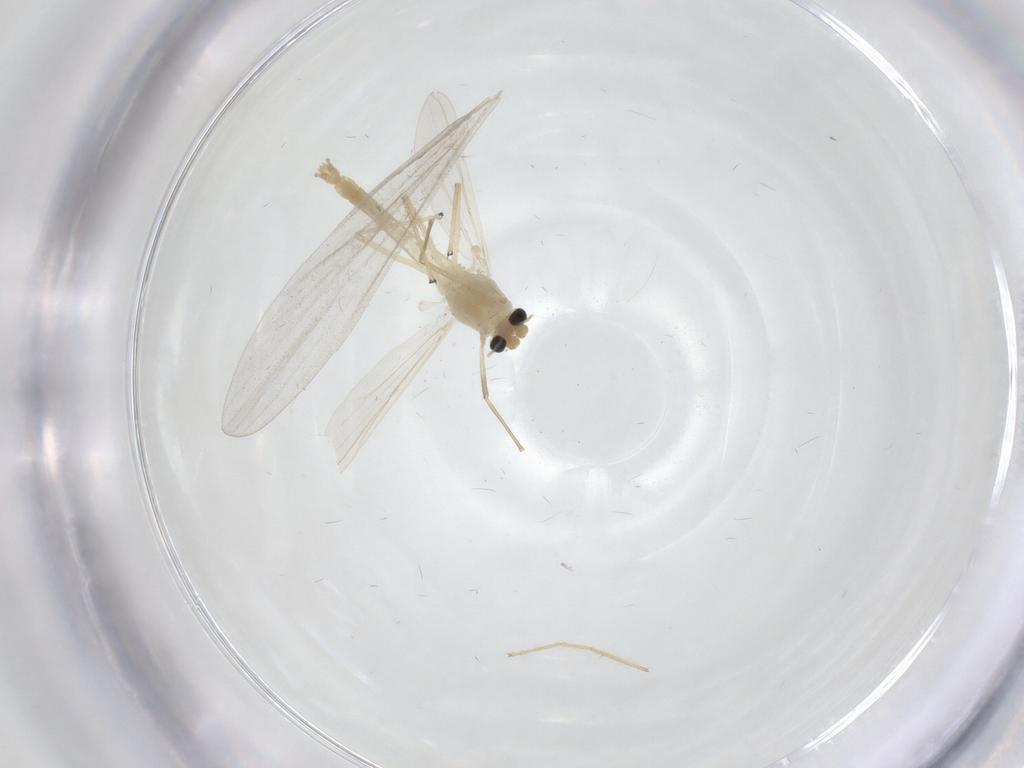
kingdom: Animalia
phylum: Arthropoda
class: Insecta
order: Diptera
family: Chironomidae
